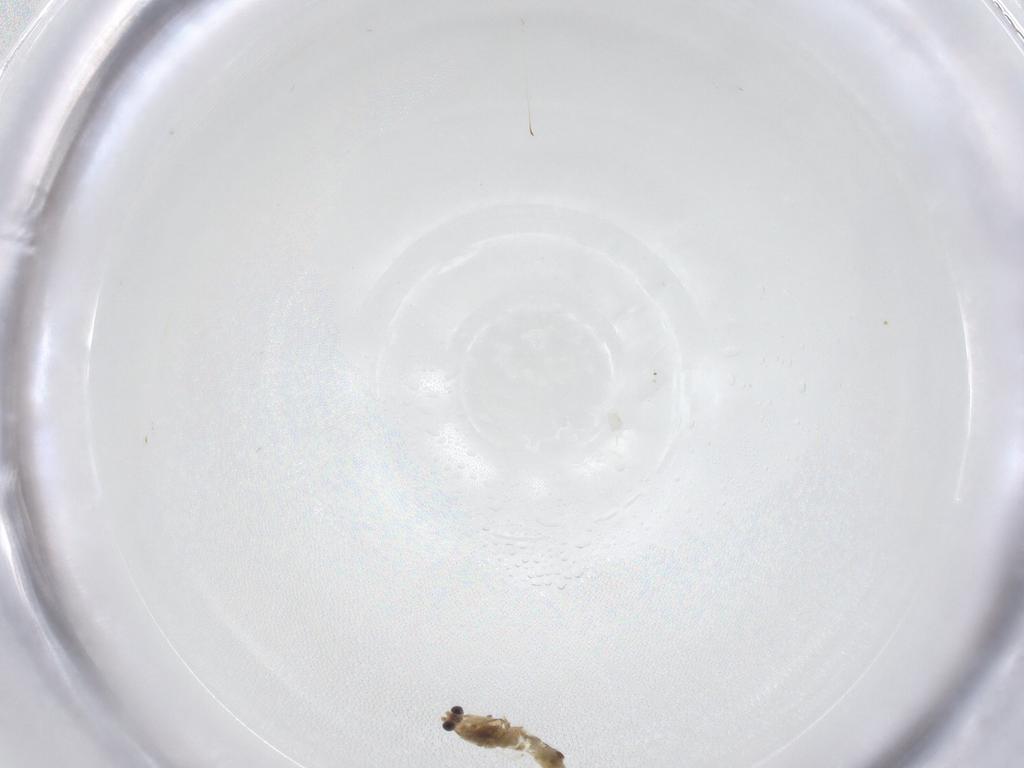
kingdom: Animalia
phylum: Arthropoda
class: Insecta
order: Diptera
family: Chironomidae
